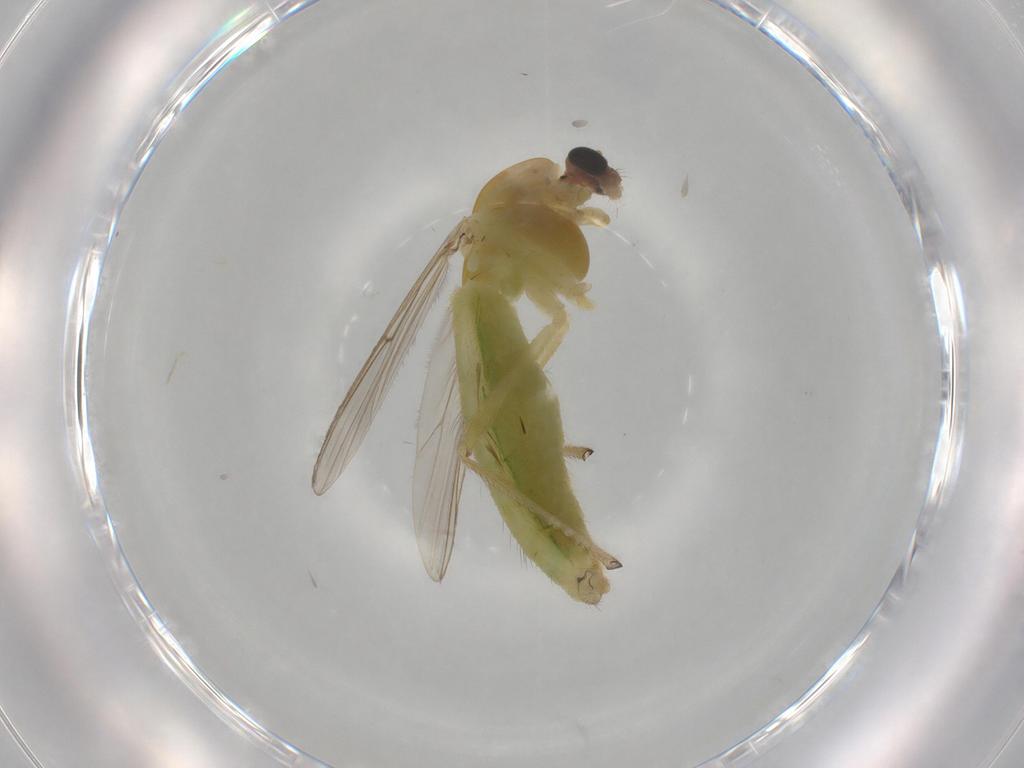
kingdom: Animalia
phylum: Arthropoda
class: Insecta
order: Diptera
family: Chironomidae
